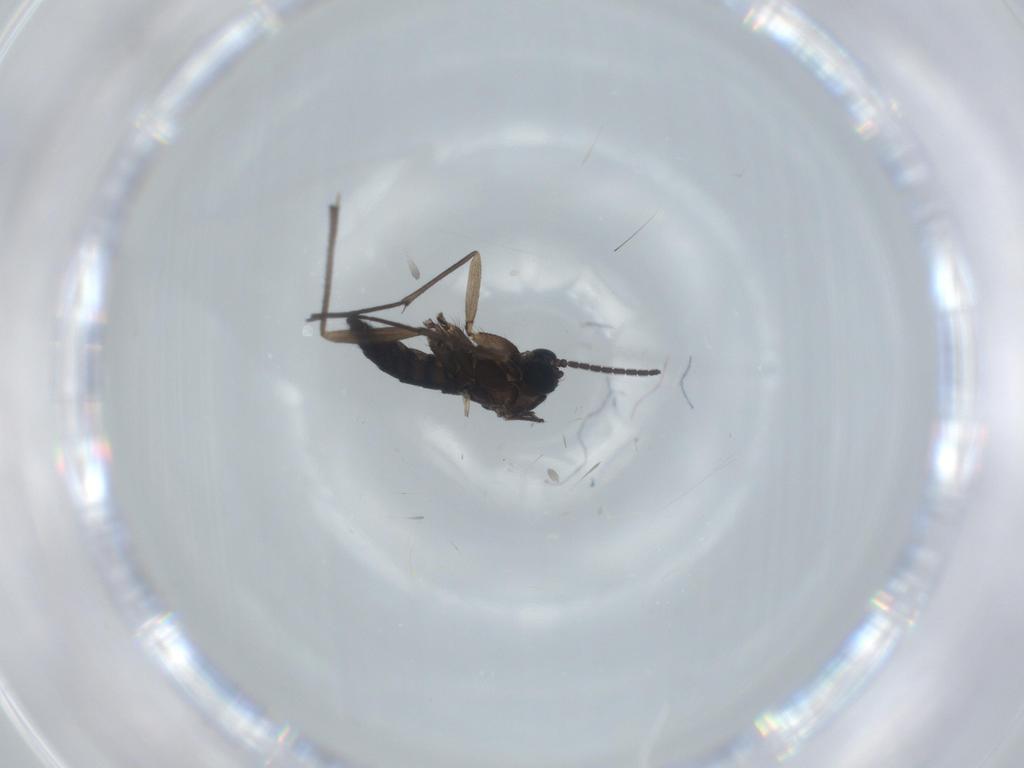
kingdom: Animalia
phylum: Arthropoda
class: Insecta
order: Diptera
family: Sciaridae
